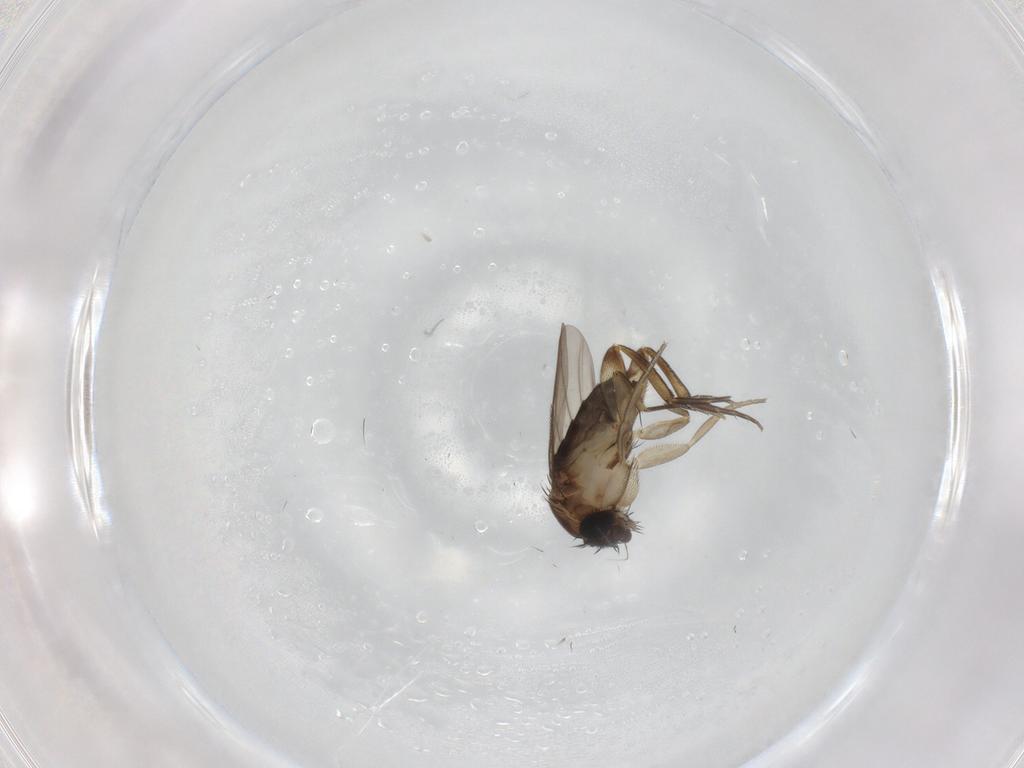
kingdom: Animalia
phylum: Arthropoda
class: Insecta
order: Diptera
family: Phoridae
